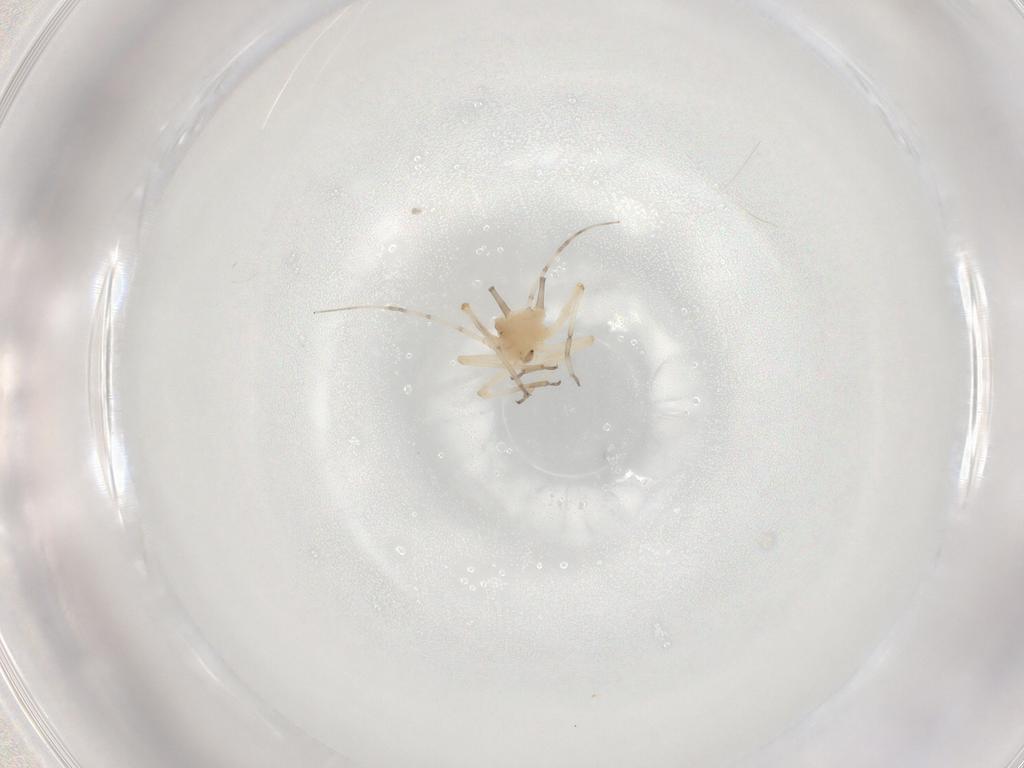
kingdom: Animalia
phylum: Arthropoda
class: Insecta
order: Hemiptera
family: Aphididae
